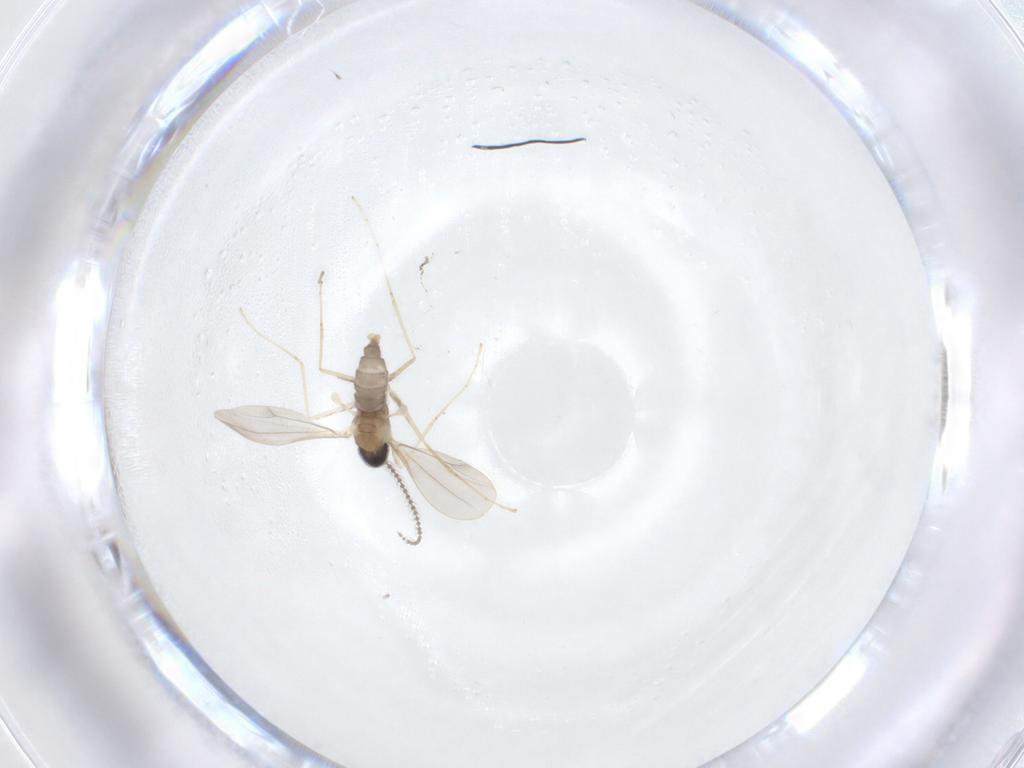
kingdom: Animalia
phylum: Arthropoda
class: Insecta
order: Diptera
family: Cecidomyiidae
